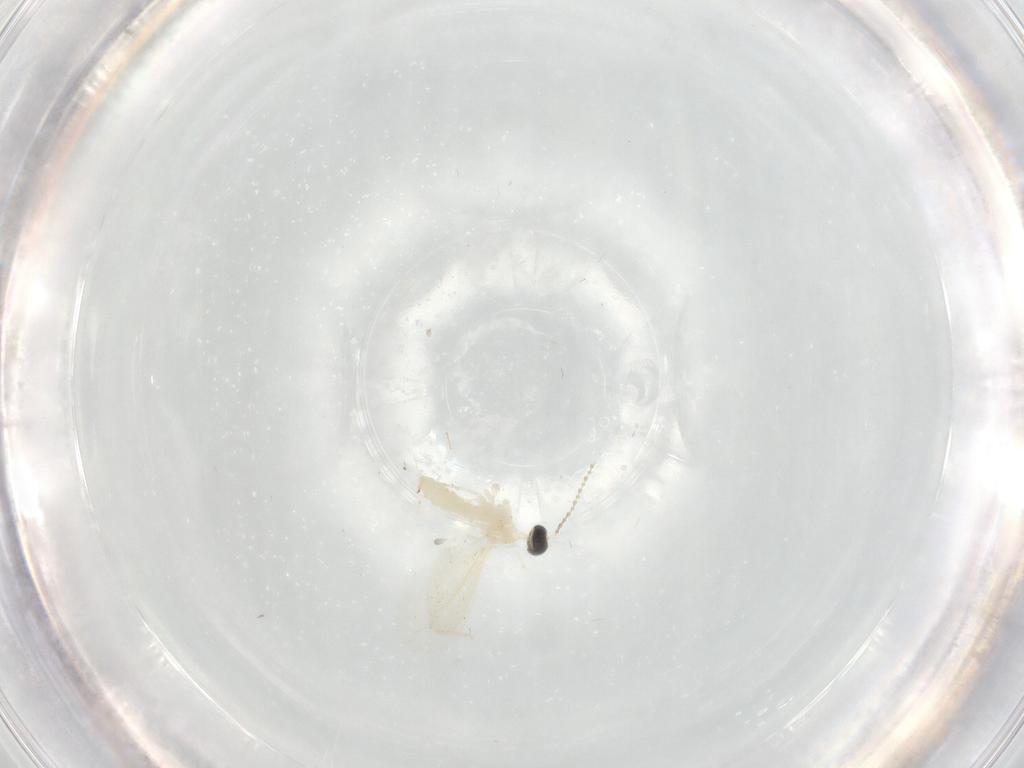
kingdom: Animalia
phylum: Arthropoda
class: Insecta
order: Diptera
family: Cecidomyiidae
